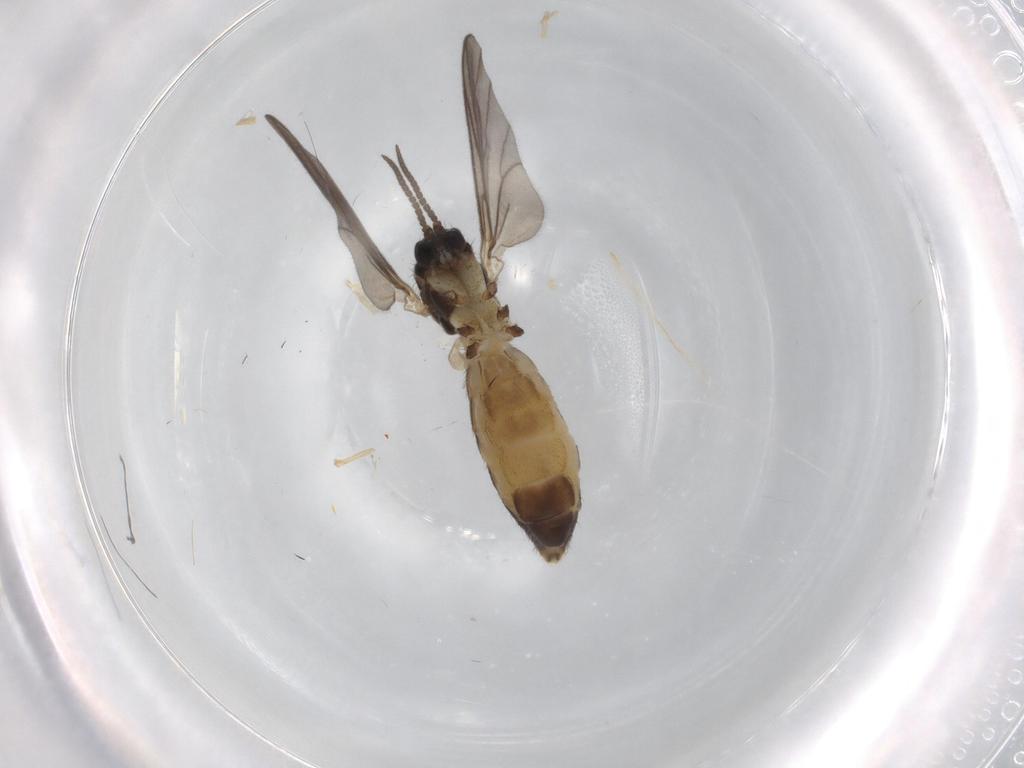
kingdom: Animalia
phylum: Arthropoda
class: Insecta
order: Diptera
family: Mycetophilidae
